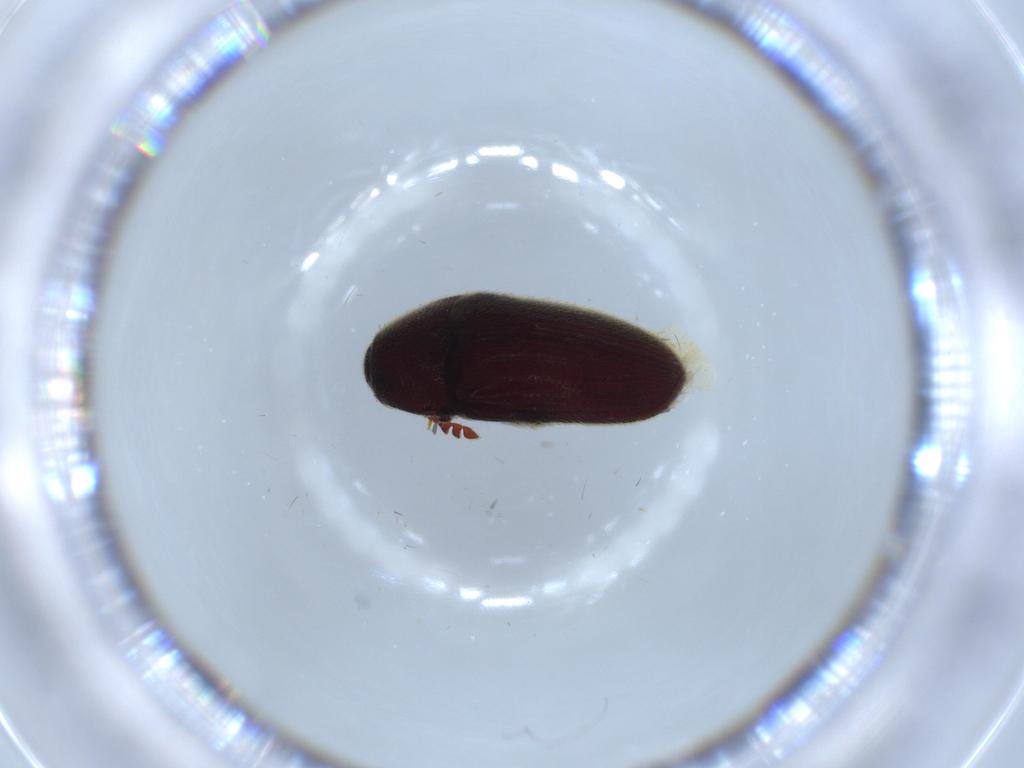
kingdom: Animalia
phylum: Arthropoda
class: Insecta
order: Coleoptera
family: Throscidae
